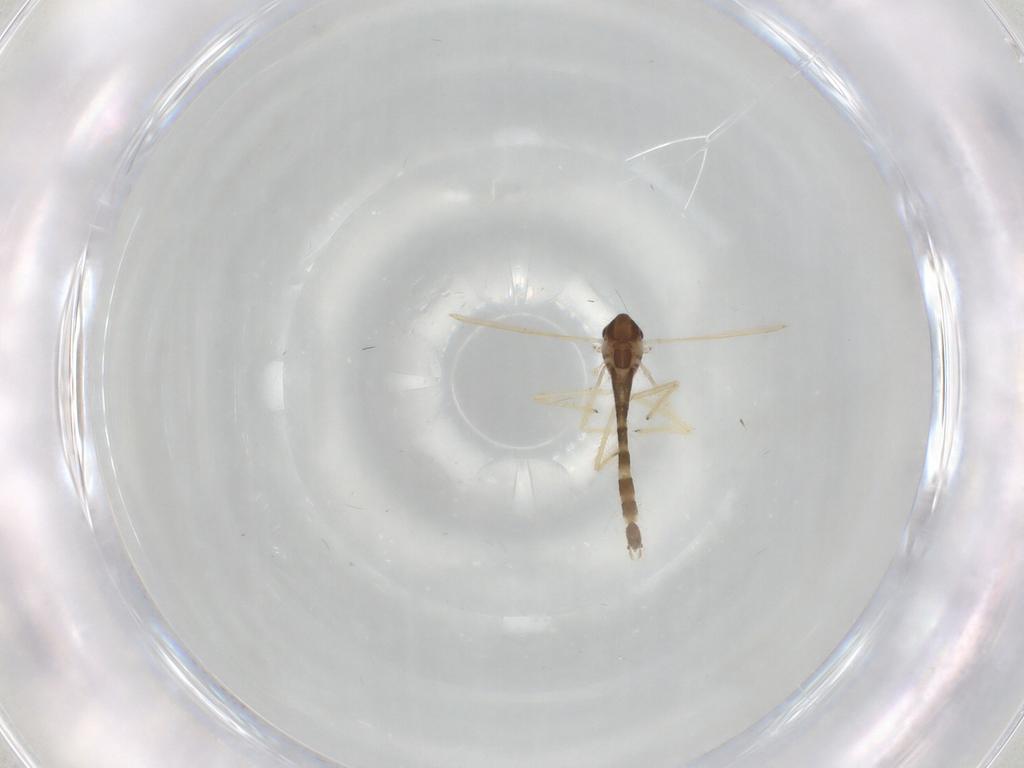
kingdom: Animalia
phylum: Arthropoda
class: Insecta
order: Diptera
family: Chironomidae
